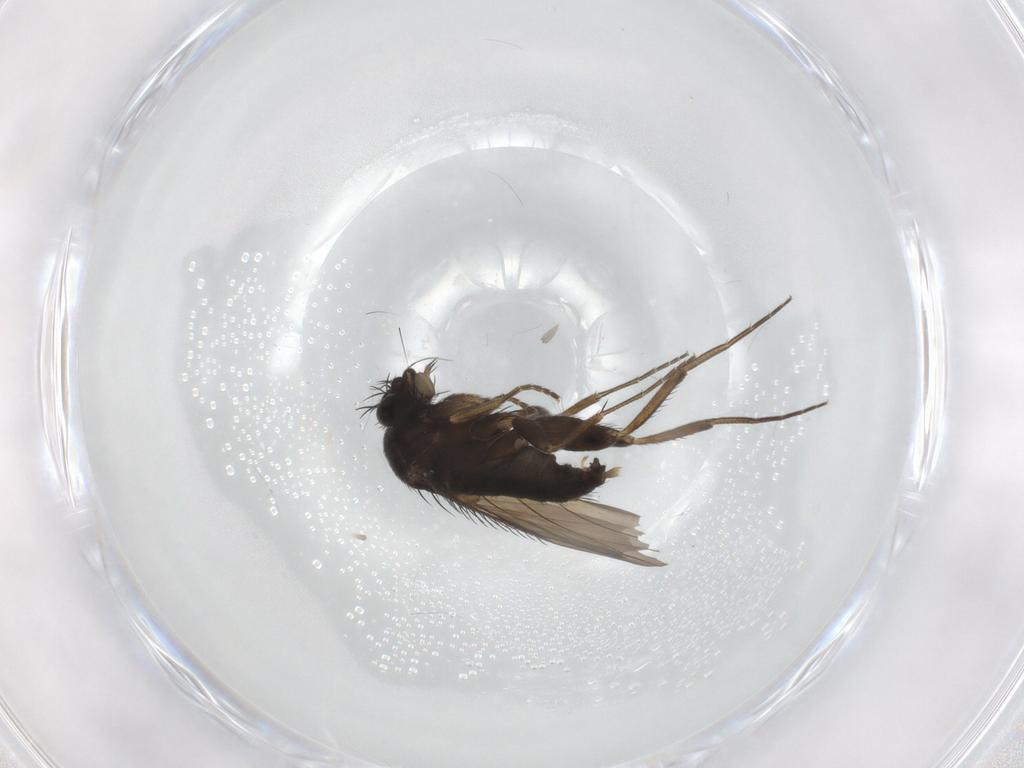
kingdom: Animalia
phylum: Arthropoda
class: Insecta
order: Diptera
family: Phoridae
